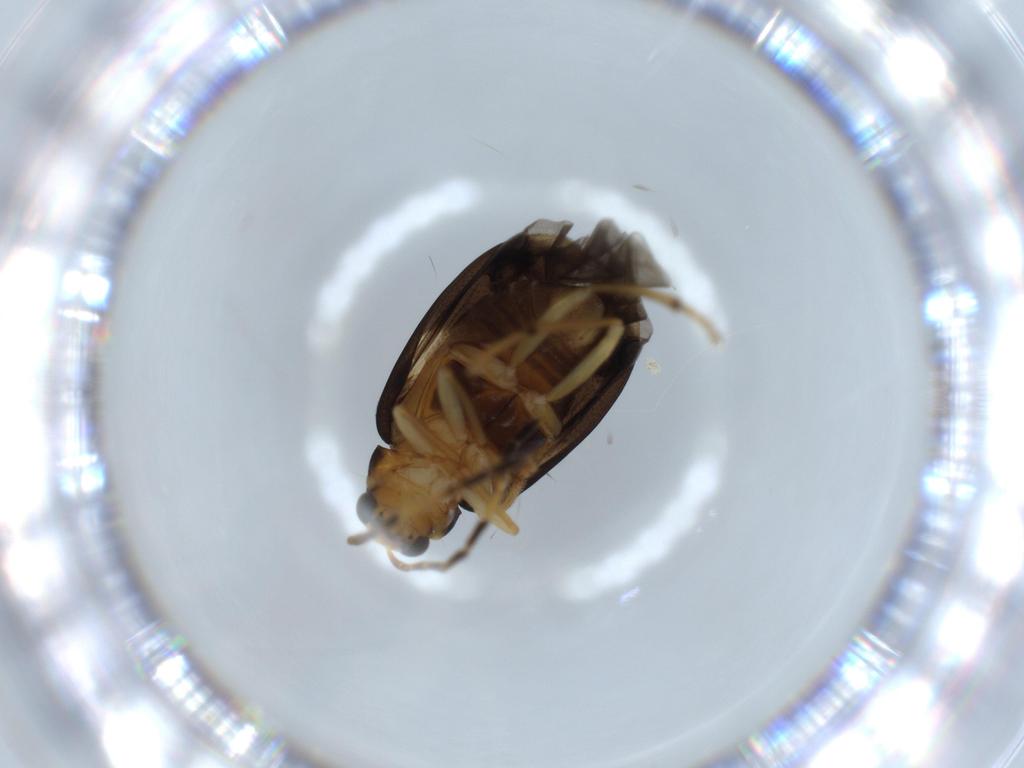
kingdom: Animalia
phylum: Arthropoda
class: Insecta
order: Coleoptera
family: Chrysomelidae
